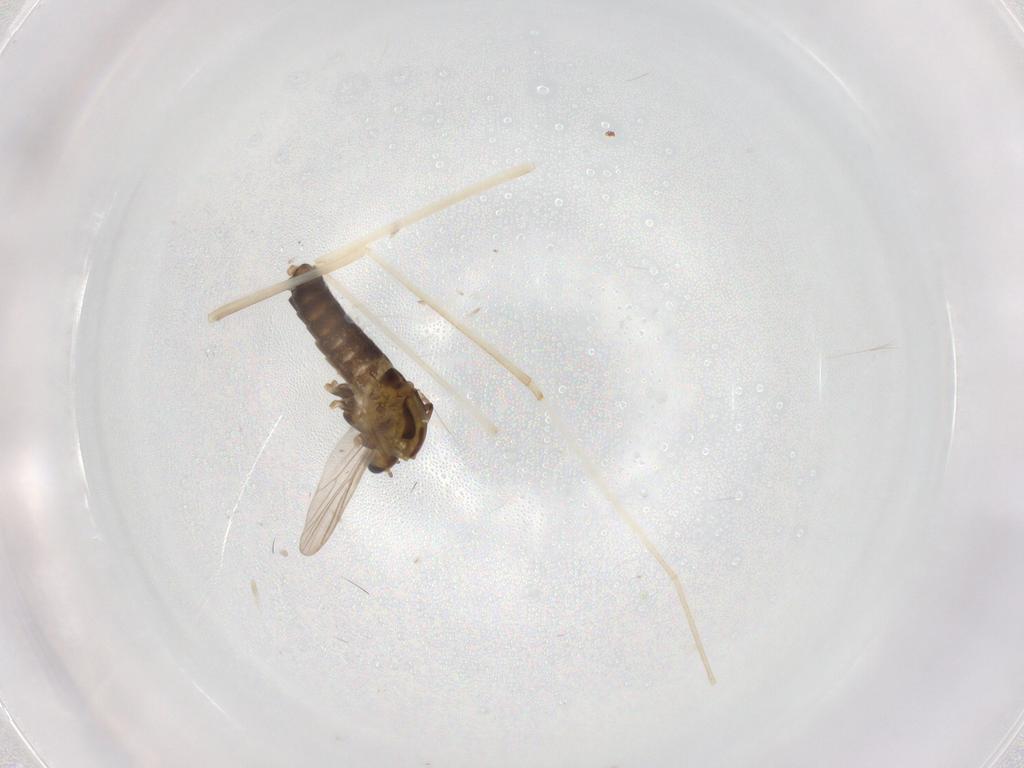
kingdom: Animalia
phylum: Arthropoda
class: Insecta
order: Diptera
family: Chironomidae
